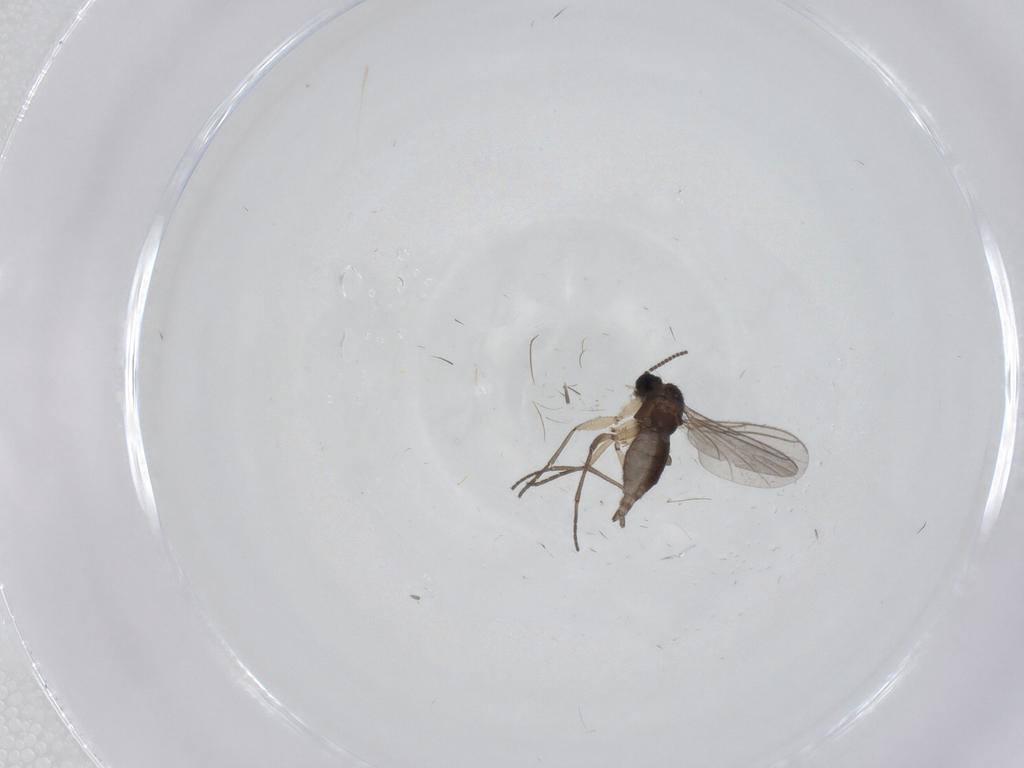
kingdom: Animalia
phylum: Arthropoda
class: Insecta
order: Diptera
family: Sciaridae
